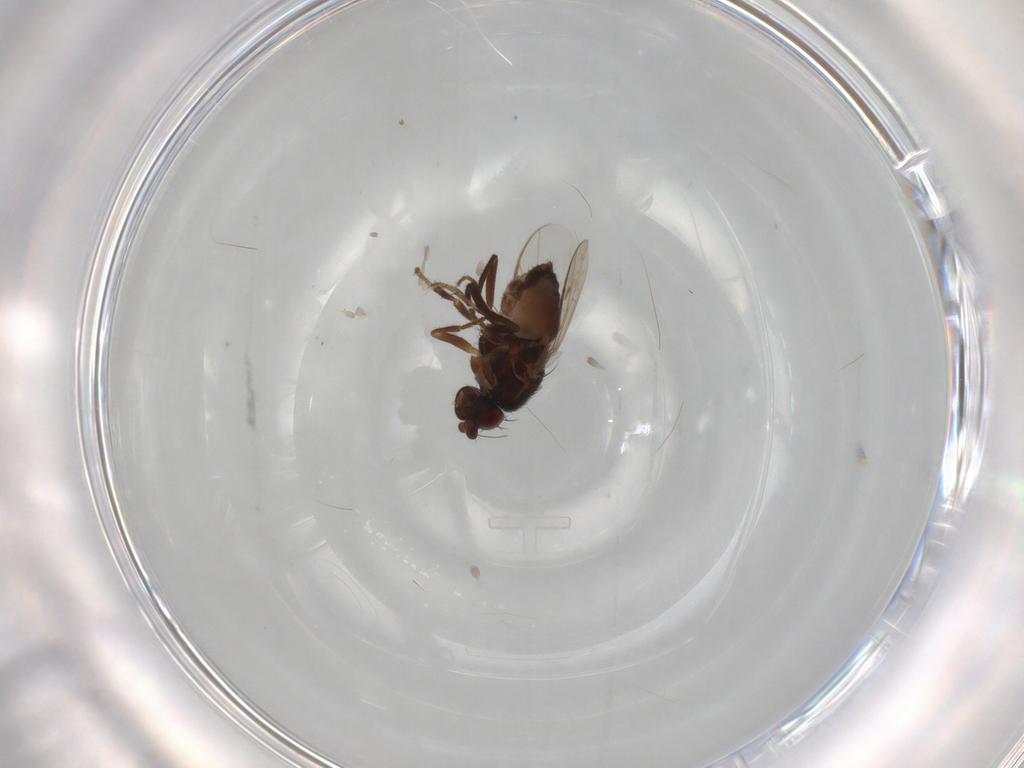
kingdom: Animalia
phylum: Arthropoda
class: Insecta
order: Diptera
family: Sphaeroceridae
